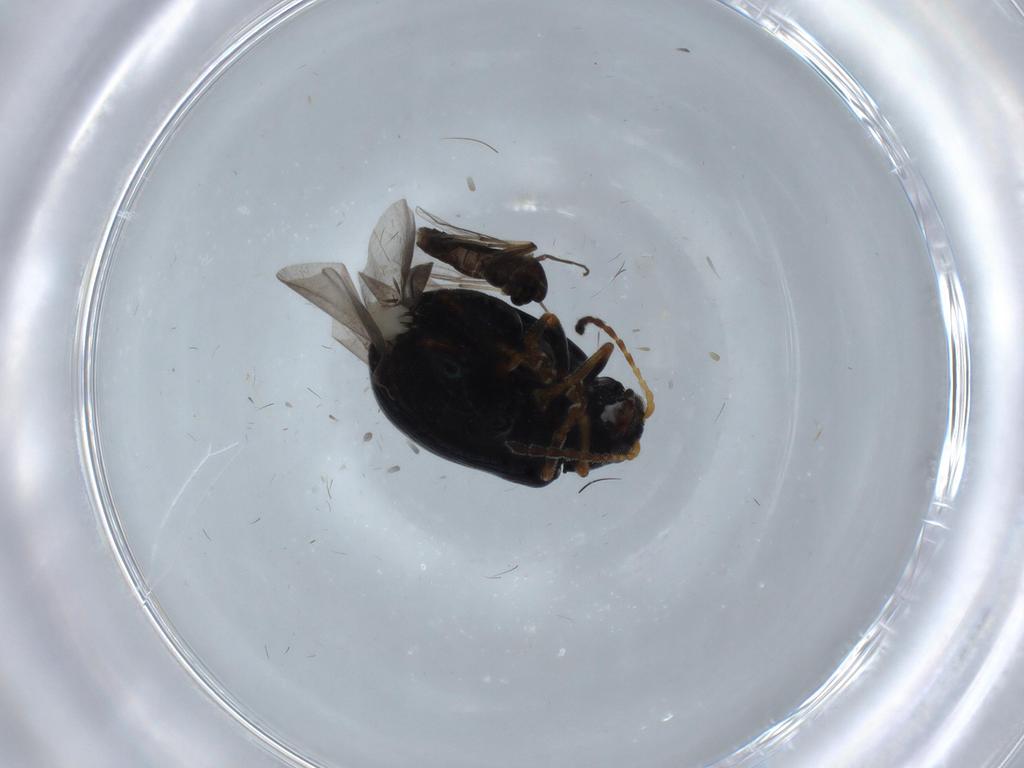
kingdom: Animalia
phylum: Arthropoda
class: Insecta
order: Diptera
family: Chironomidae
